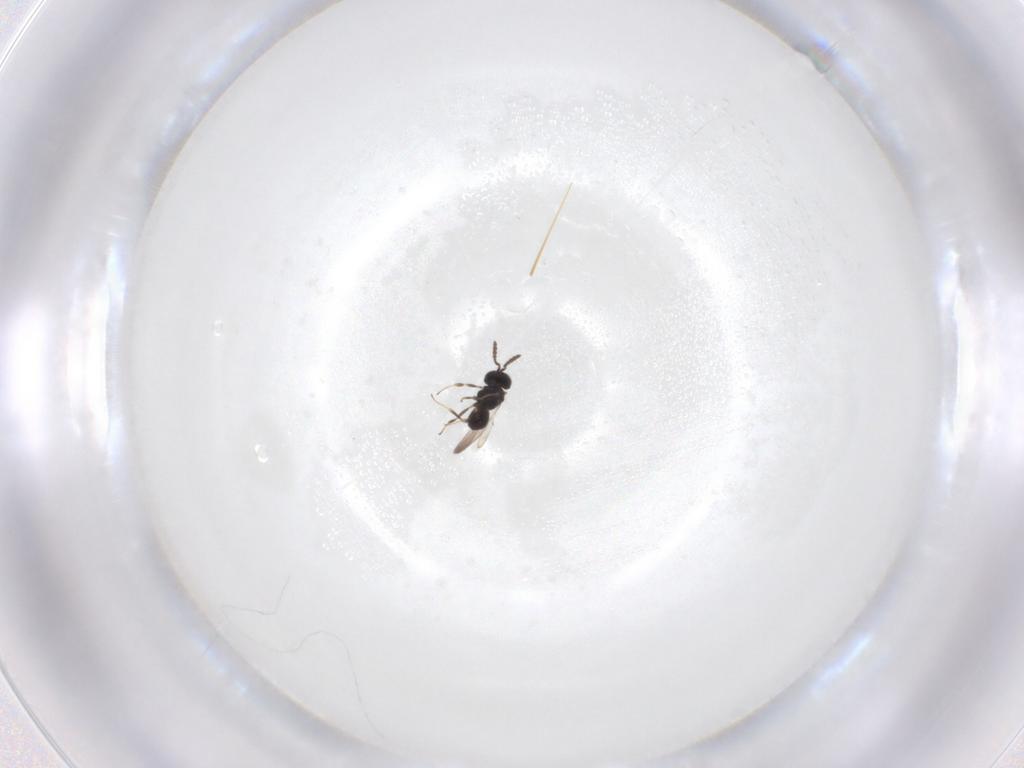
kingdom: Animalia
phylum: Arthropoda
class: Insecta
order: Hymenoptera
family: Scelionidae
